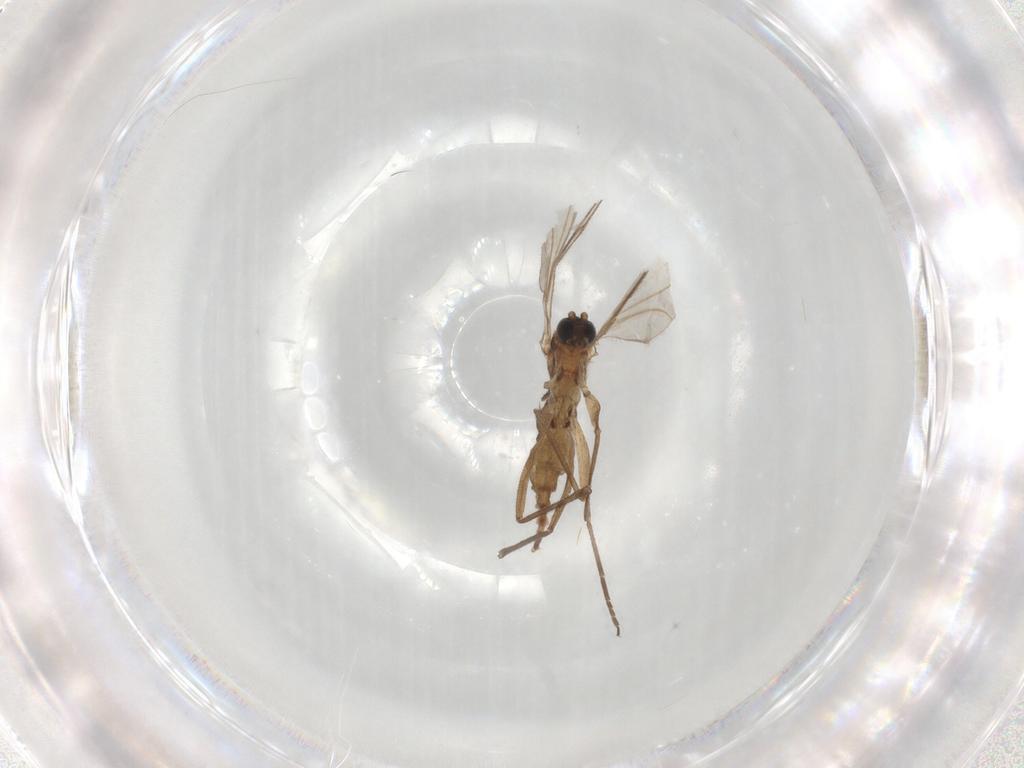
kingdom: Animalia
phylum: Arthropoda
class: Insecta
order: Diptera
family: Sciaridae
